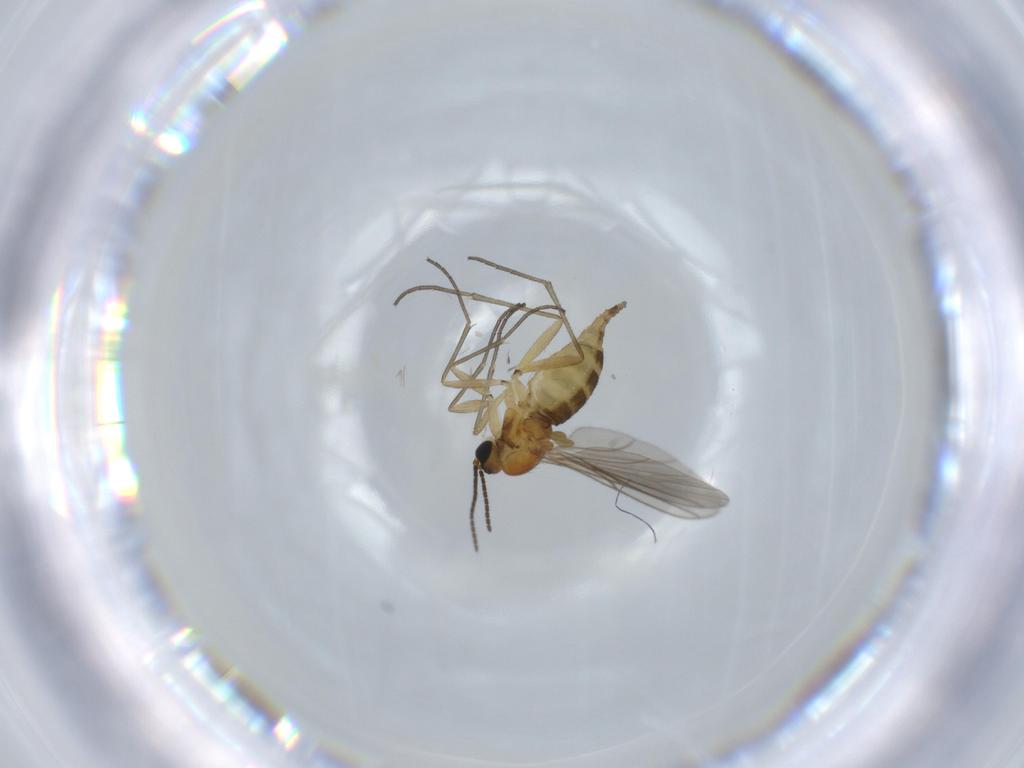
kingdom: Animalia
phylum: Arthropoda
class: Insecta
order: Diptera
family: Sciaridae
